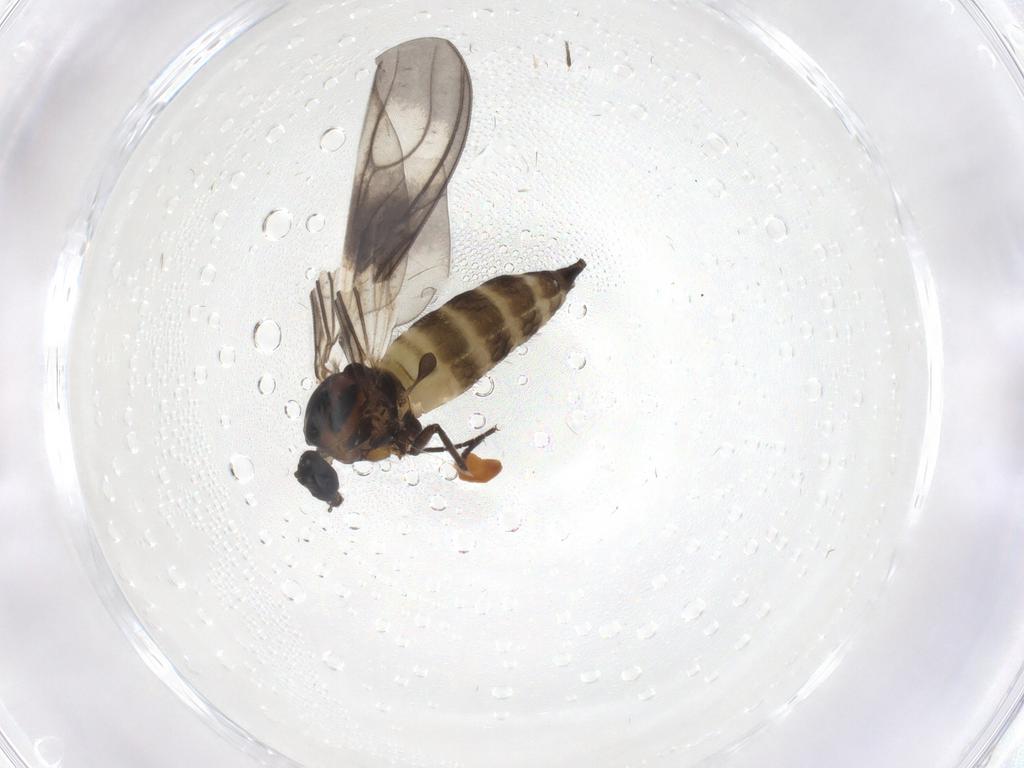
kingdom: Animalia
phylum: Arthropoda
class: Insecta
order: Diptera
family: Sciaridae
